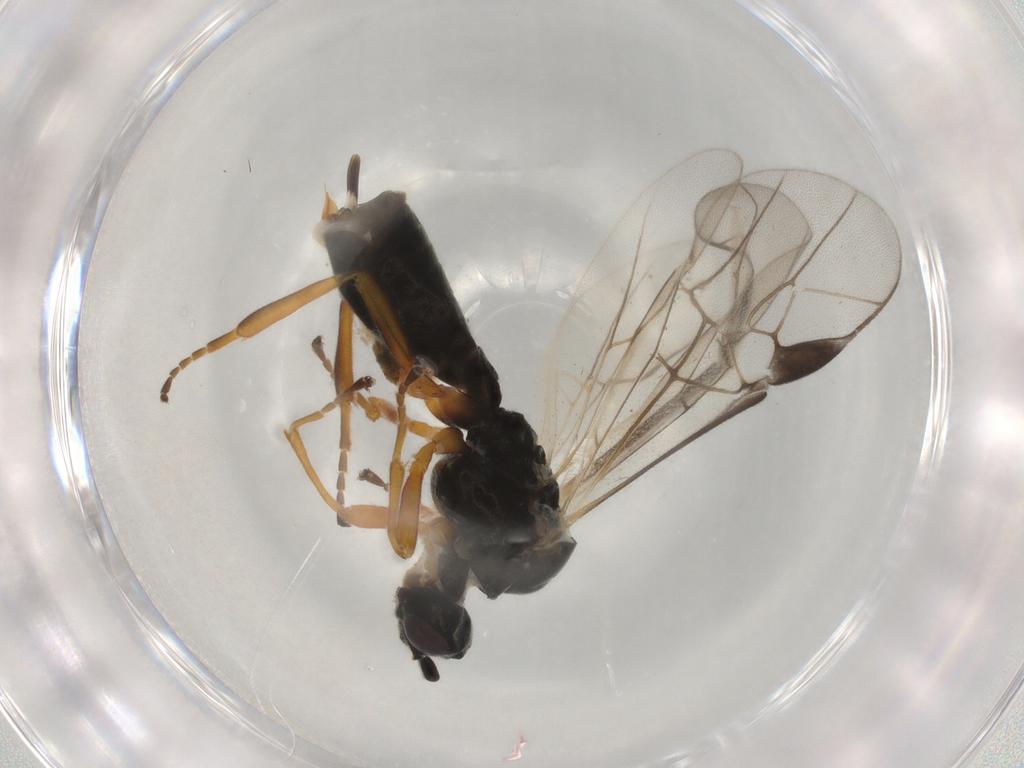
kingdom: Animalia
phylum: Arthropoda
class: Insecta
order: Hymenoptera
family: Braconidae
